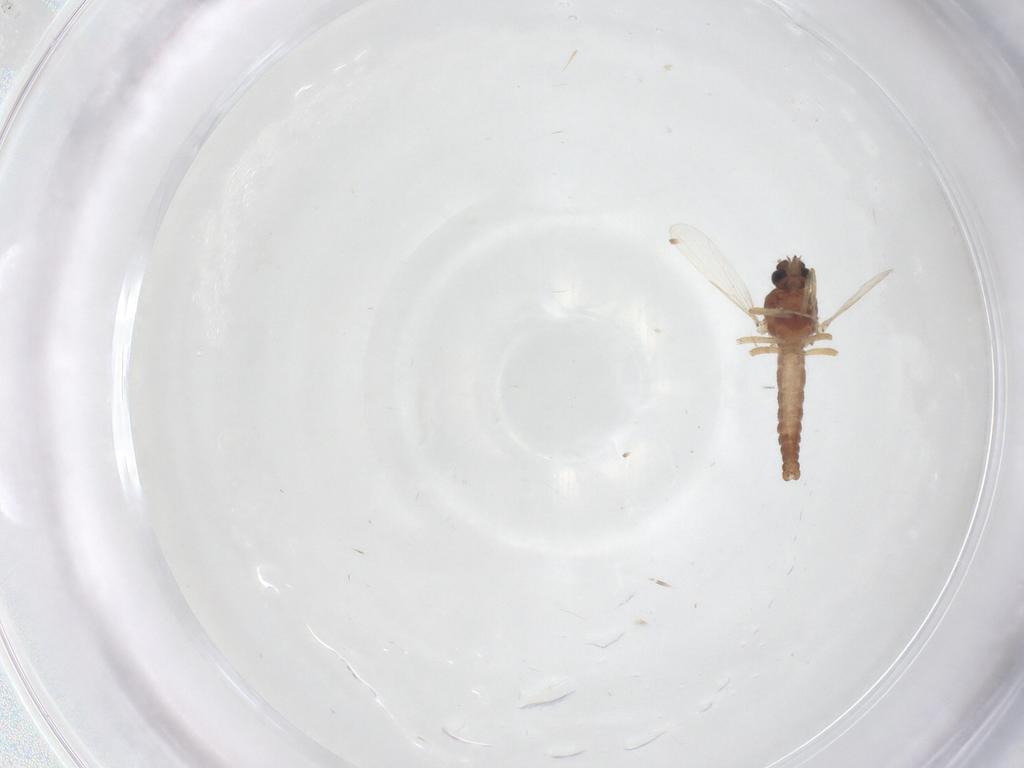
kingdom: Animalia
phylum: Arthropoda
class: Insecta
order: Diptera
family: Ceratopogonidae
